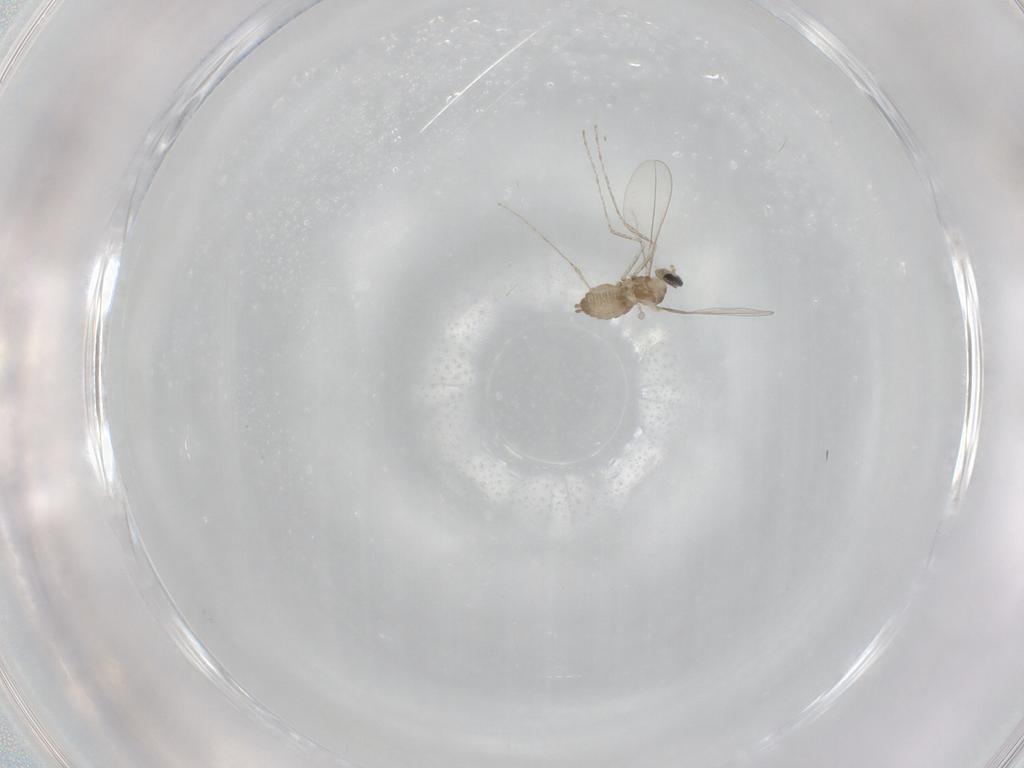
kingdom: Animalia
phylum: Arthropoda
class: Insecta
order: Diptera
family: Cecidomyiidae
